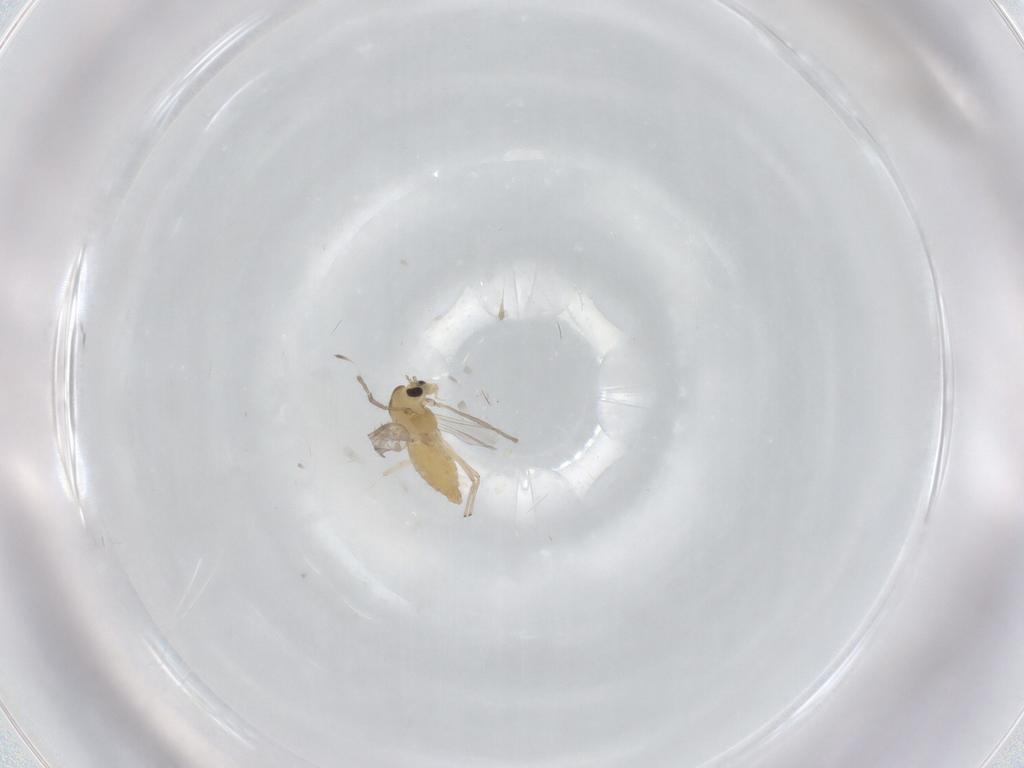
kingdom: Animalia
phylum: Arthropoda
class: Insecta
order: Diptera
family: Chironomidae
